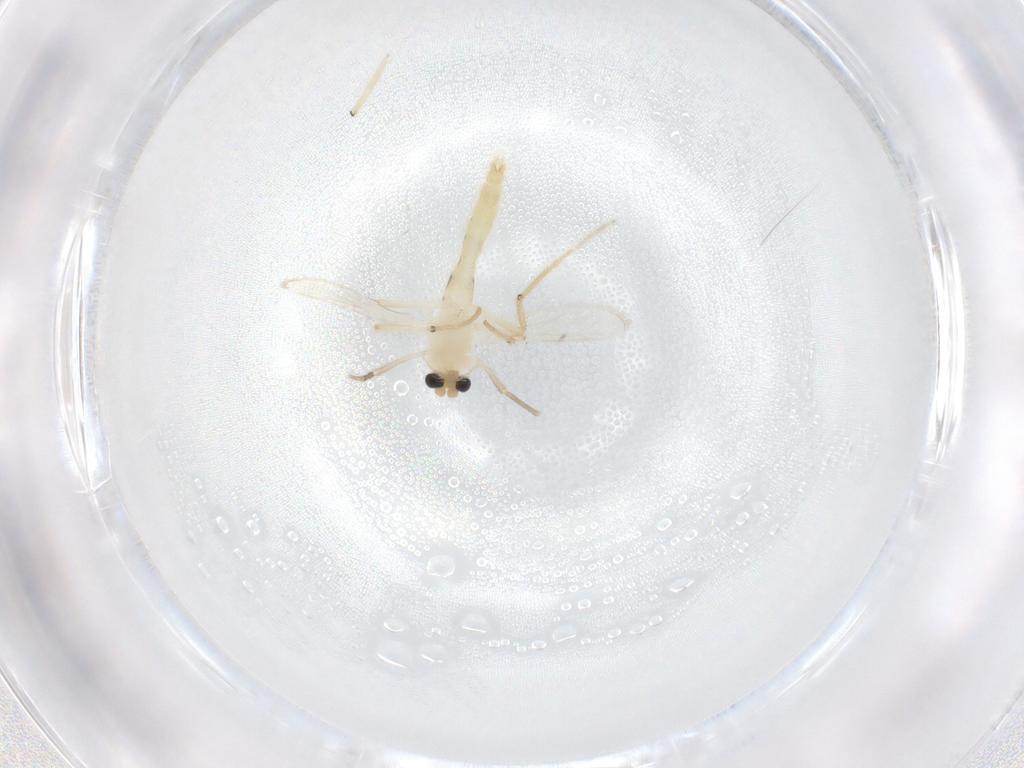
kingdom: Animalia
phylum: Arthropoda
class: Insecta
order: Diptera
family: Chironomidae
